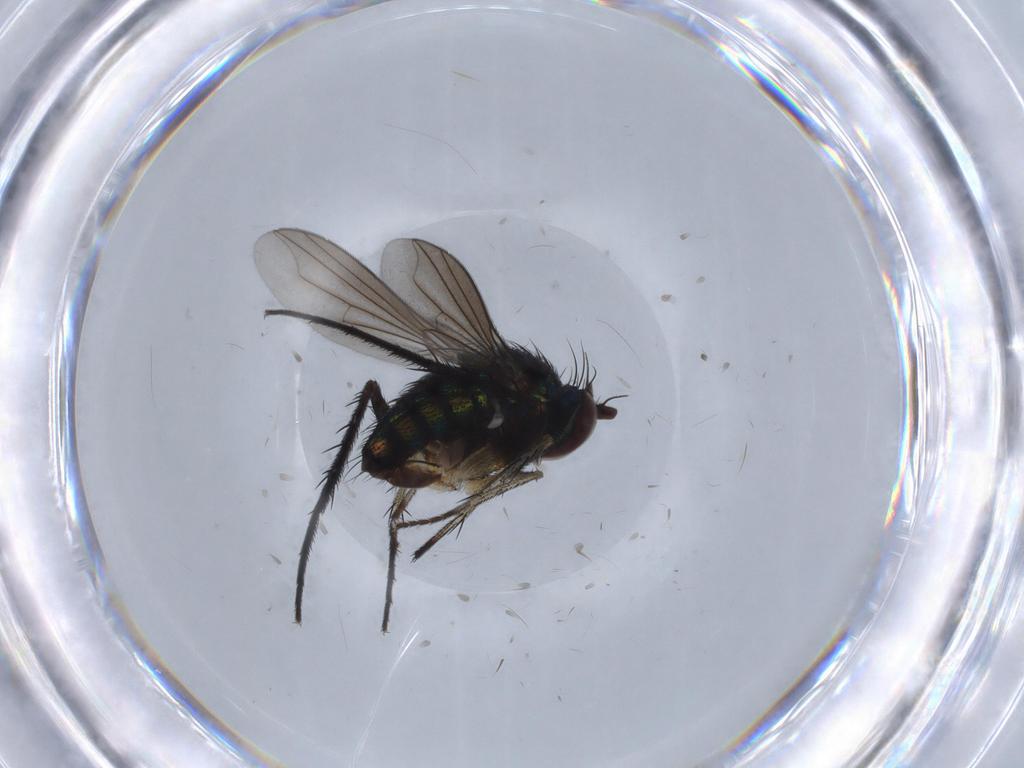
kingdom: Animalia
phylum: Arthropoda
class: Insecta
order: Diptera
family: Dolichopodidae
